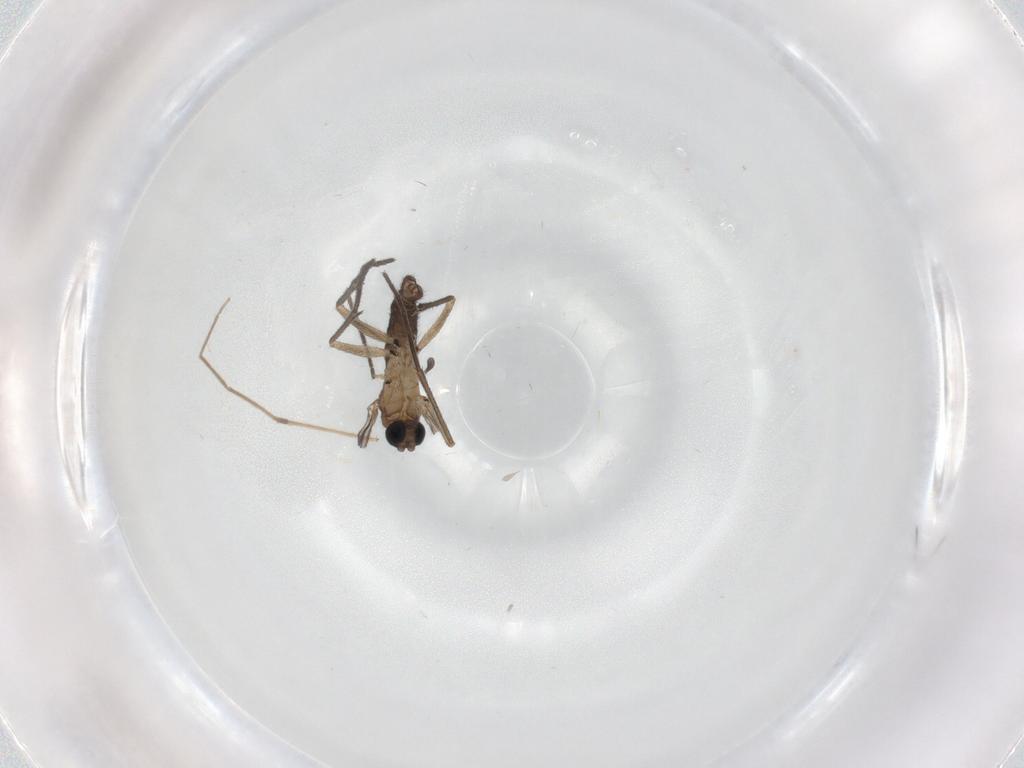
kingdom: Animalia
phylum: Arthropoda
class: Insecta
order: Diptera
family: Chironomidae
